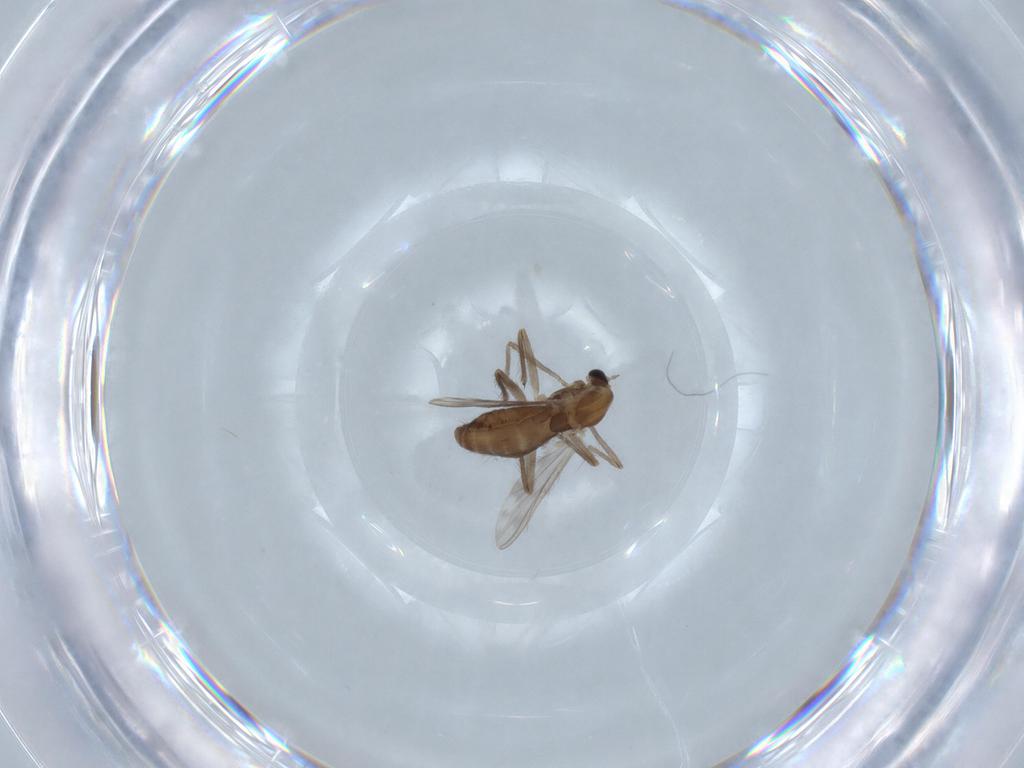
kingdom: Animalia
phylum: Arthropoda
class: Insecta
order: Diptera
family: Chironomidae
